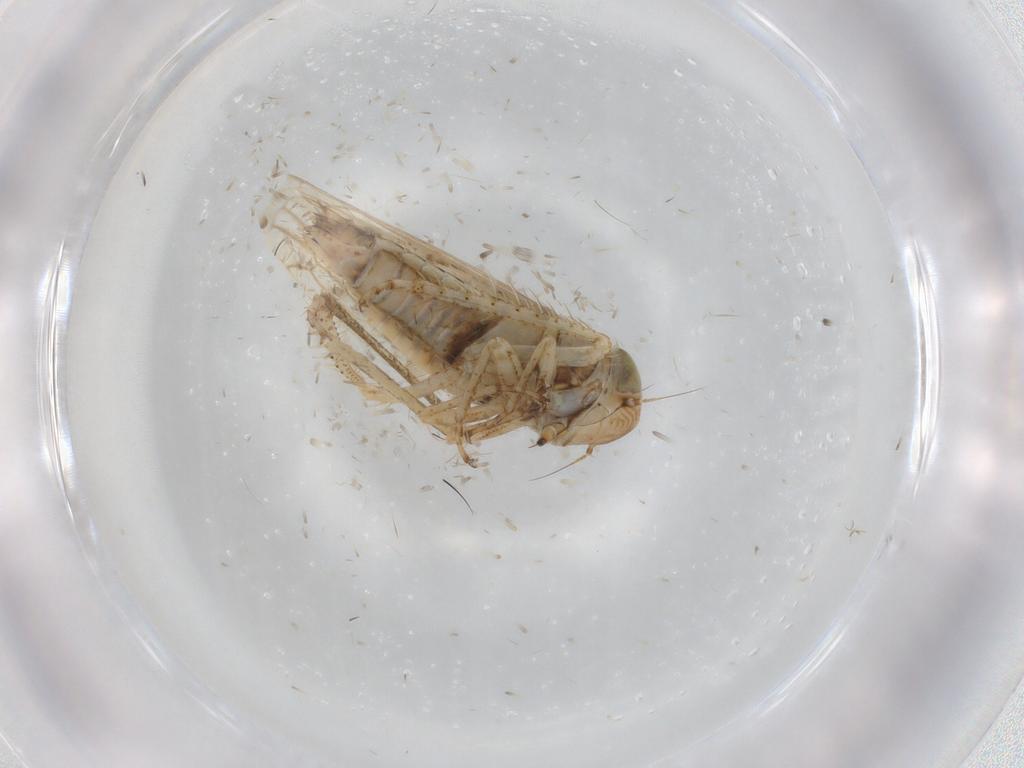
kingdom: Animalia
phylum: Arthropoda
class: Insecta
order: Hemiptera
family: Cicadellidae
